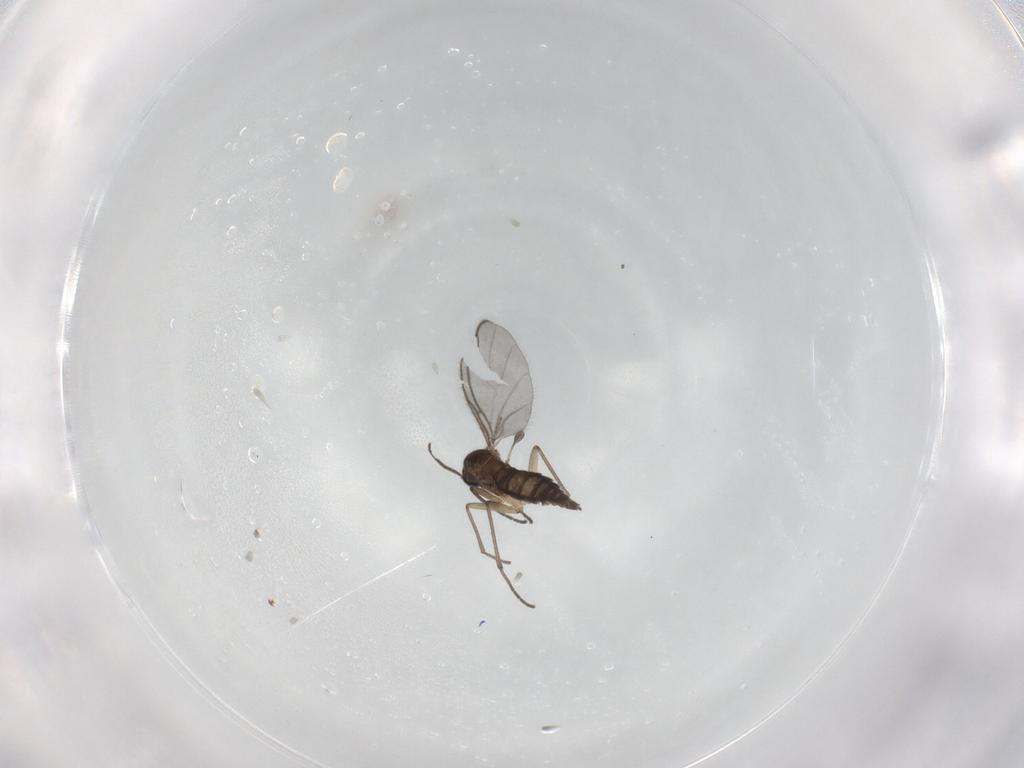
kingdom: Animalia
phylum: Arthropoda
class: Insecta
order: Diptera
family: Sciaridae
